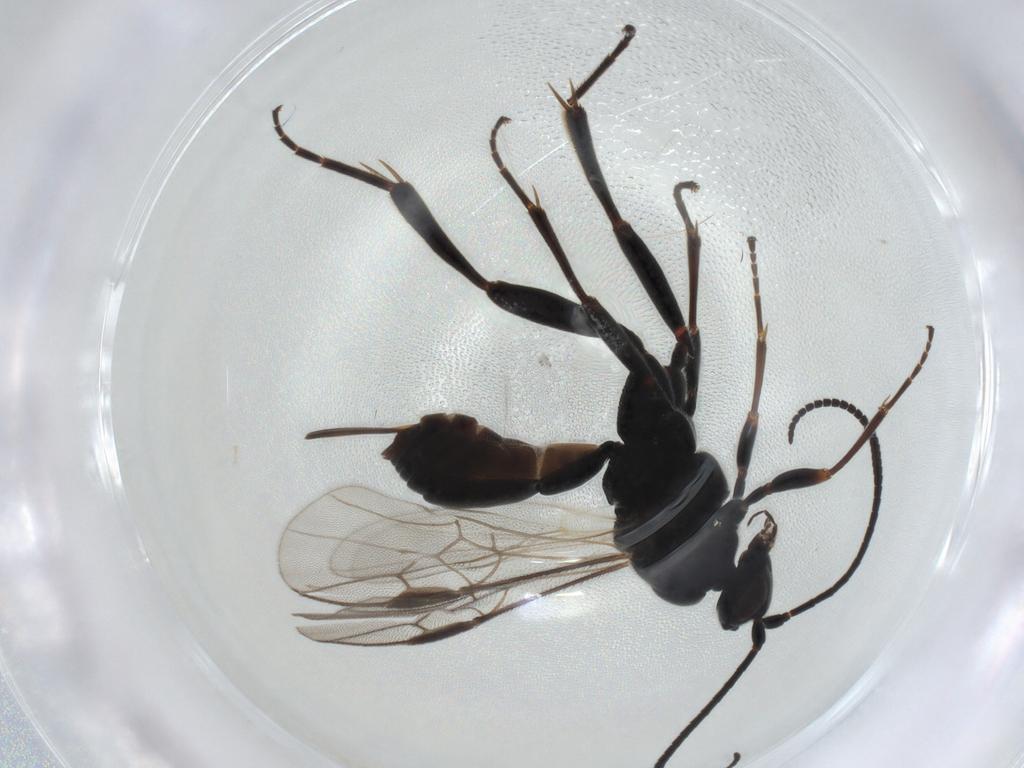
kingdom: Animalia
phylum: Arthropoda
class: Insecta
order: Hymenoptera
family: Braconidae
